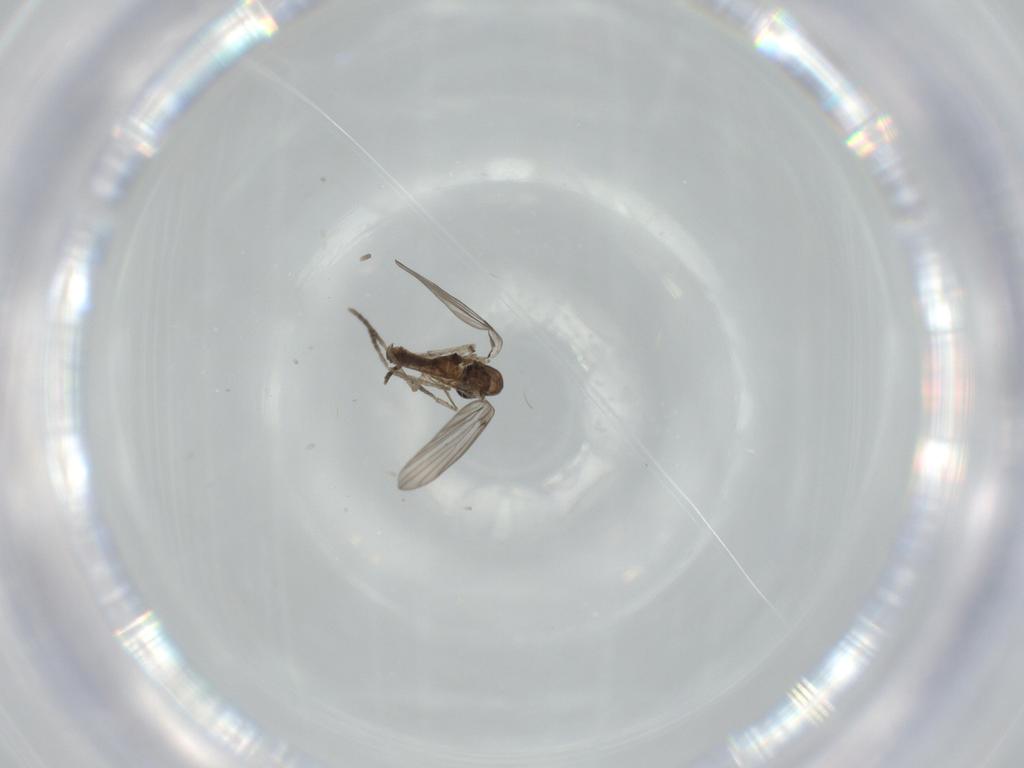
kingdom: Animalia
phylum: Arthropoda
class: Insecta
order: Diptera
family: Psychodidae
